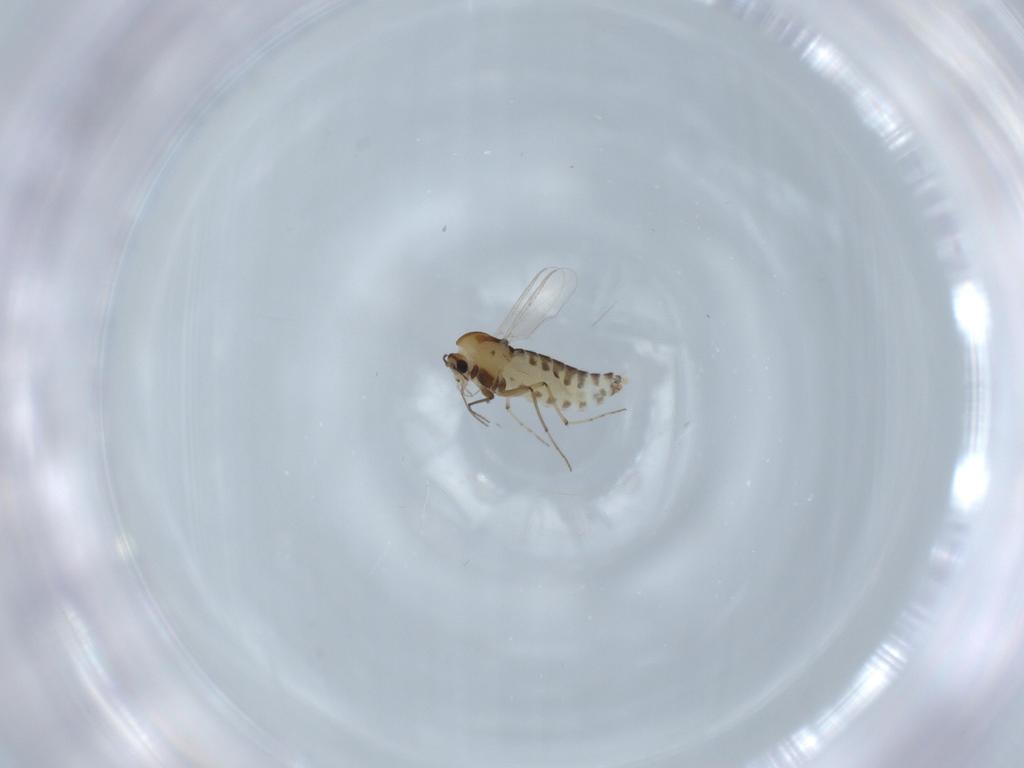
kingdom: Animalia
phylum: Arthropoda
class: Insecta
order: Diptera
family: Chironomidae
